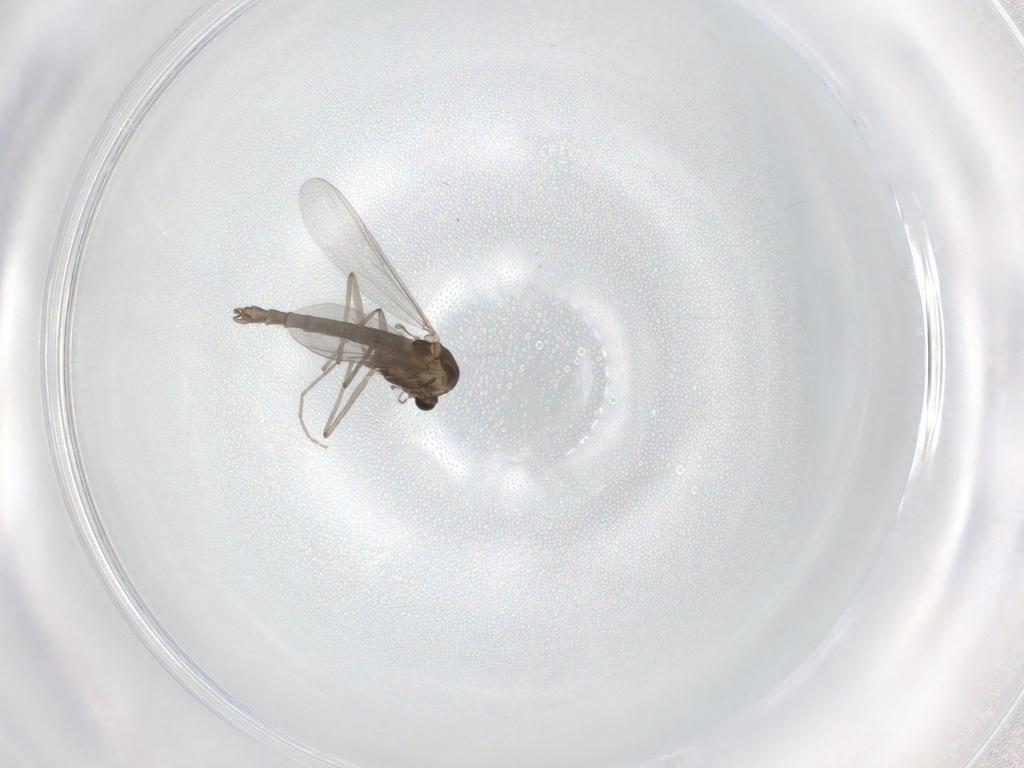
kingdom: Animalia
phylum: Arthropoda
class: Insecta
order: Diptera
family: Chironomidae
